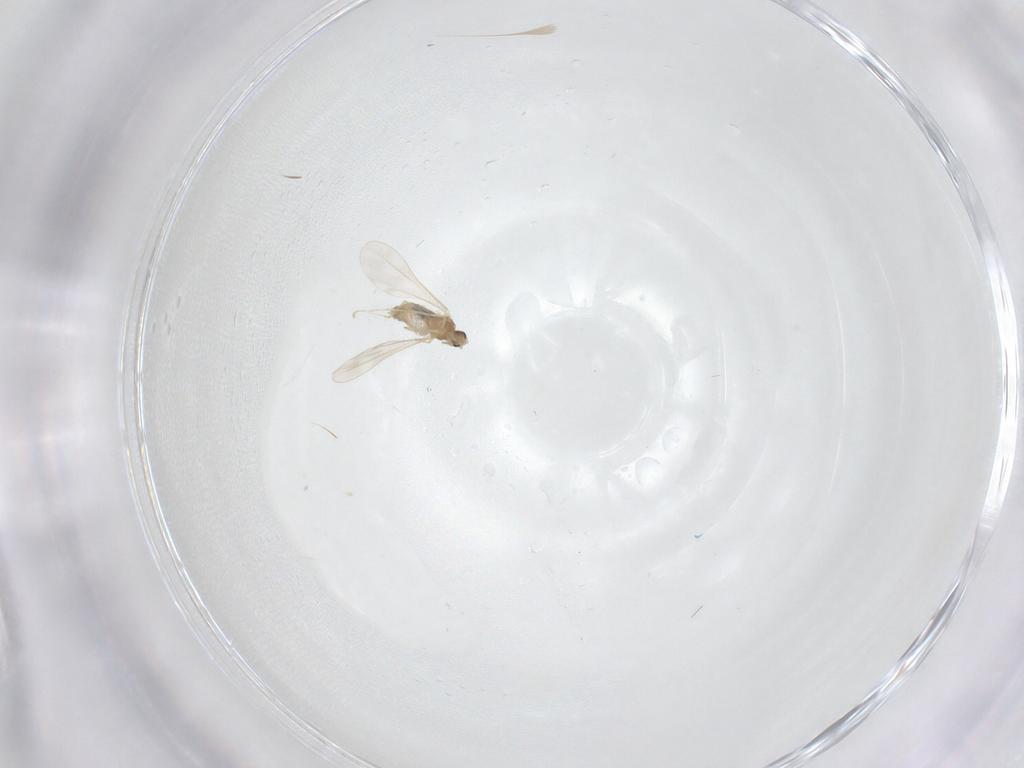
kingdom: Animalia
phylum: Arthropoda
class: Insecta
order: Diptera
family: Cecidomyiidae
